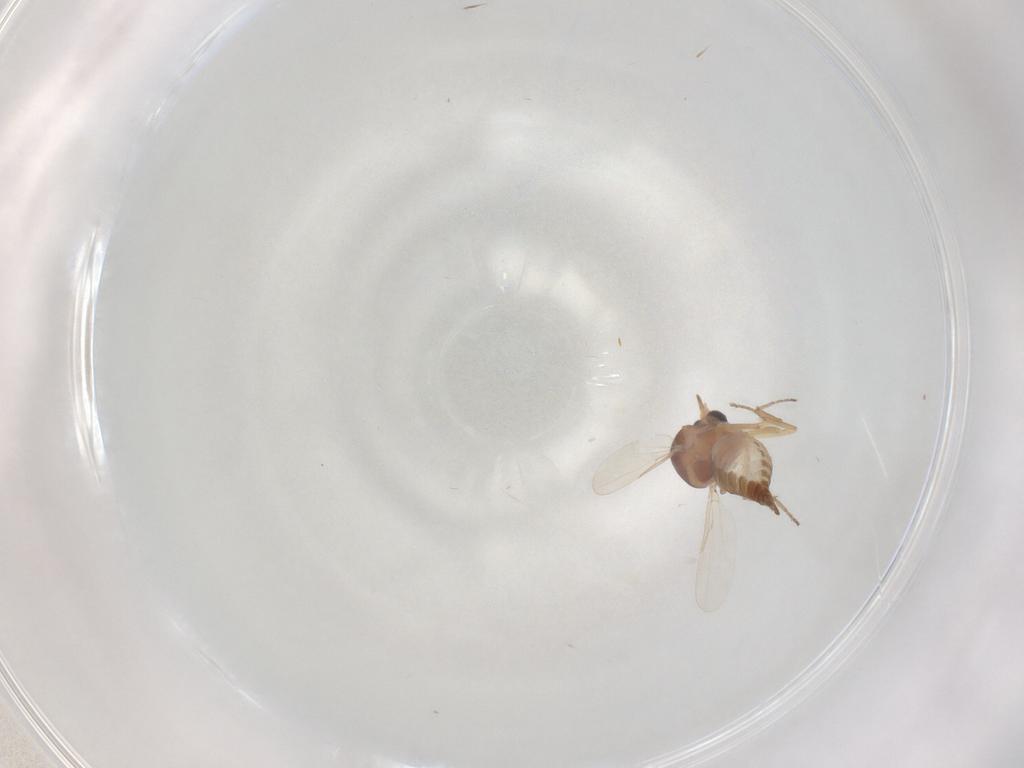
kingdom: Animalia
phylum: Arthropoda
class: Insecta
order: Diptera
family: Ceratopogonidae
